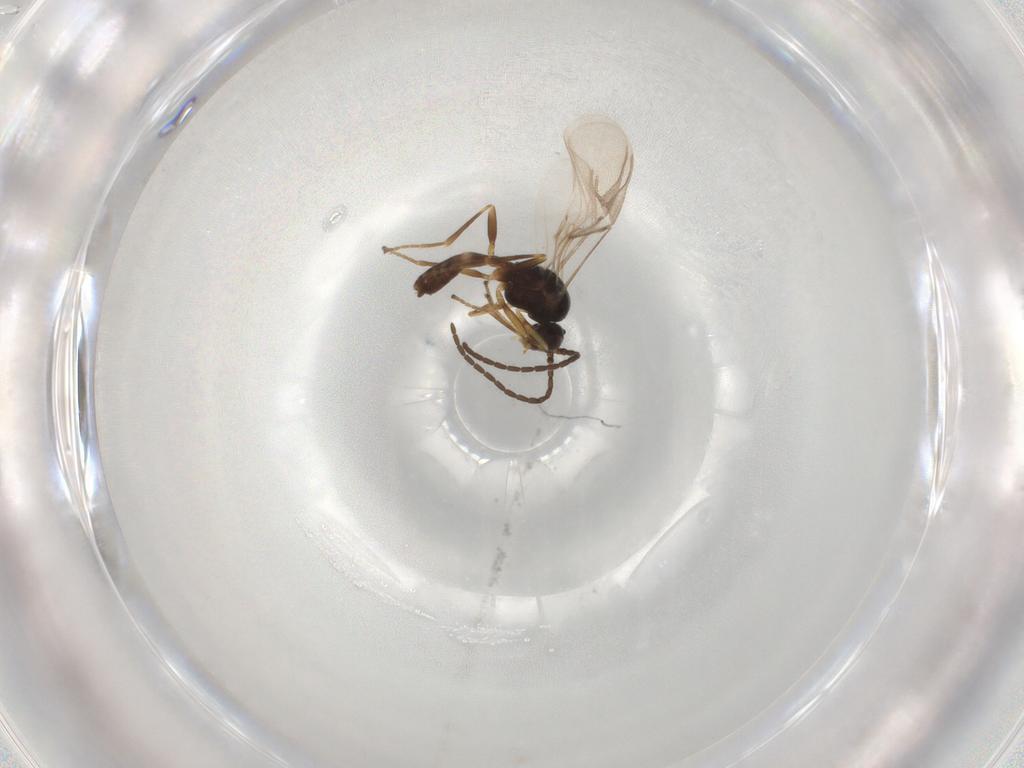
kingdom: Animalia
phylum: Arthropoda
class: Insecta
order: Hymenoptera
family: Braconidae
